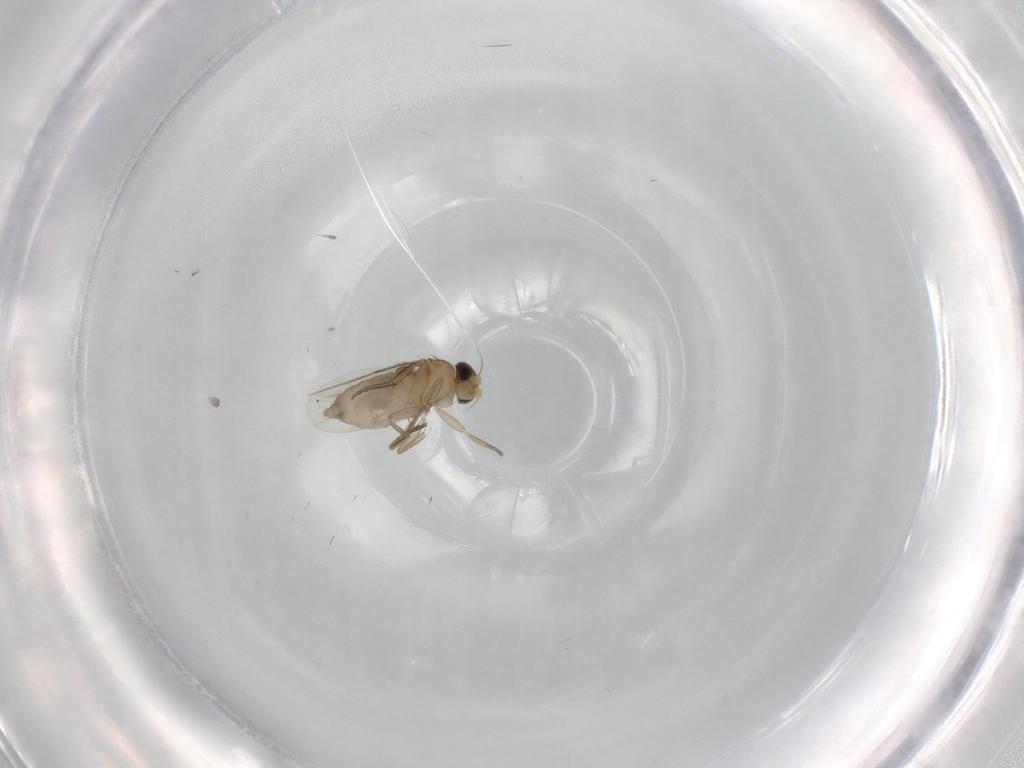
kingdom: Animalia
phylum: Arthropoda
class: Insecta
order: Diptera
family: Phoridae
